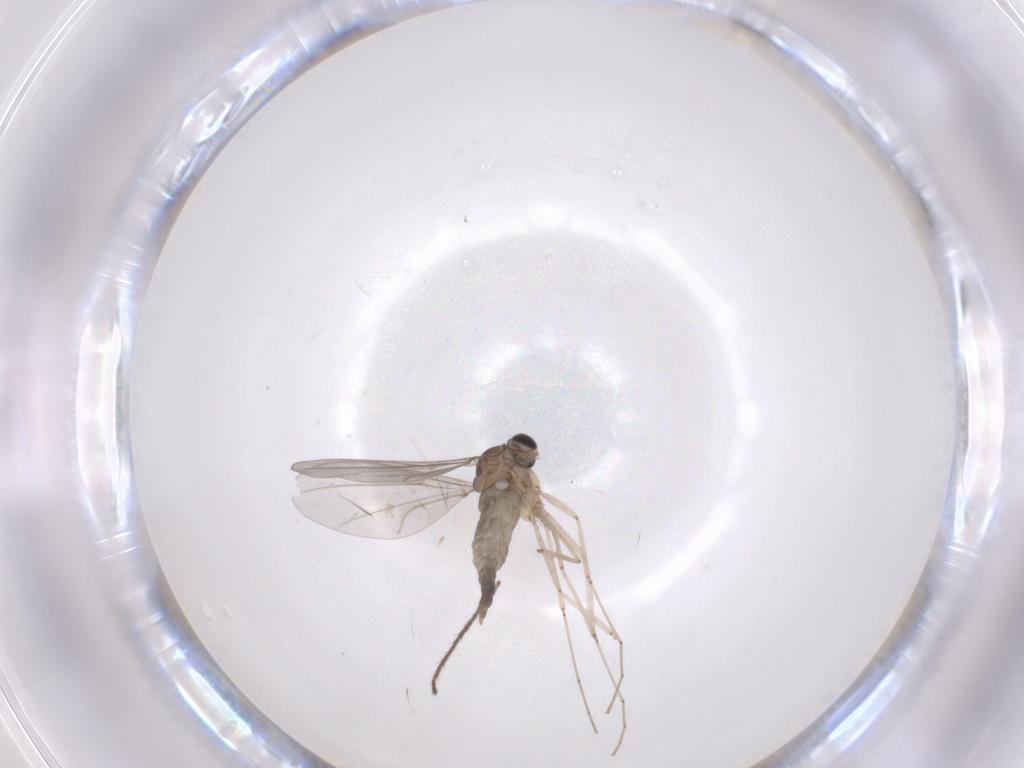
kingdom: Animalia
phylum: Arthropoda
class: Insecta
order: Diptera
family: Cecidomyiidae
